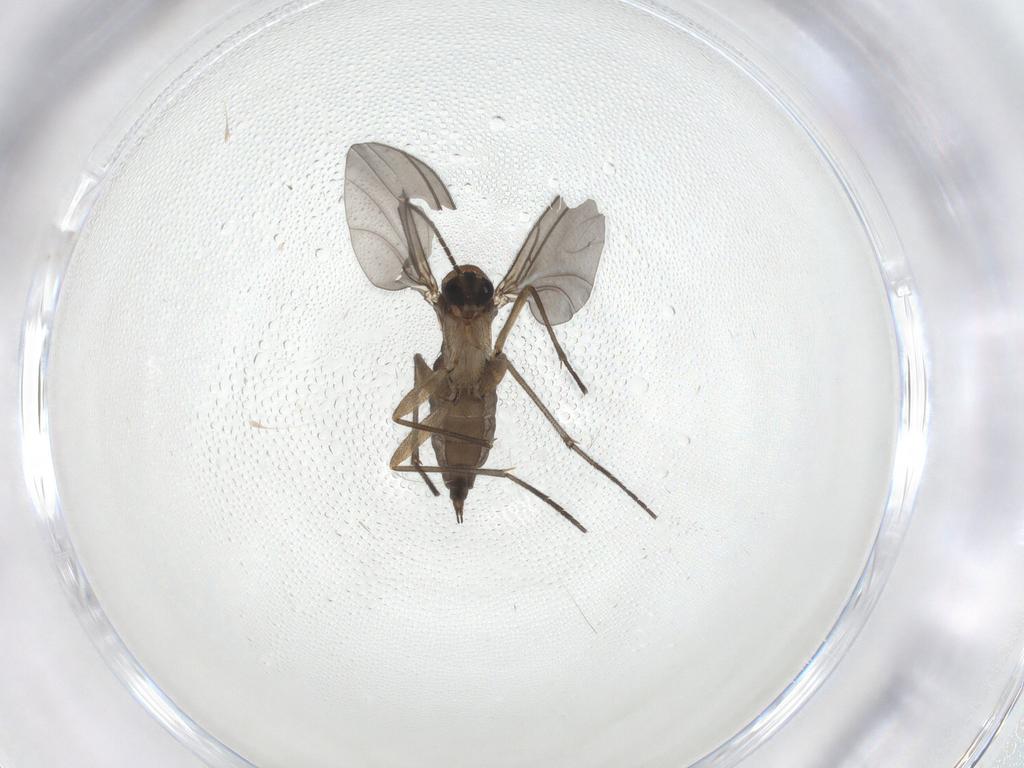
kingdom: Animalia
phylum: Arthropoda
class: Insecta
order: Diptera
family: Sciaridae
